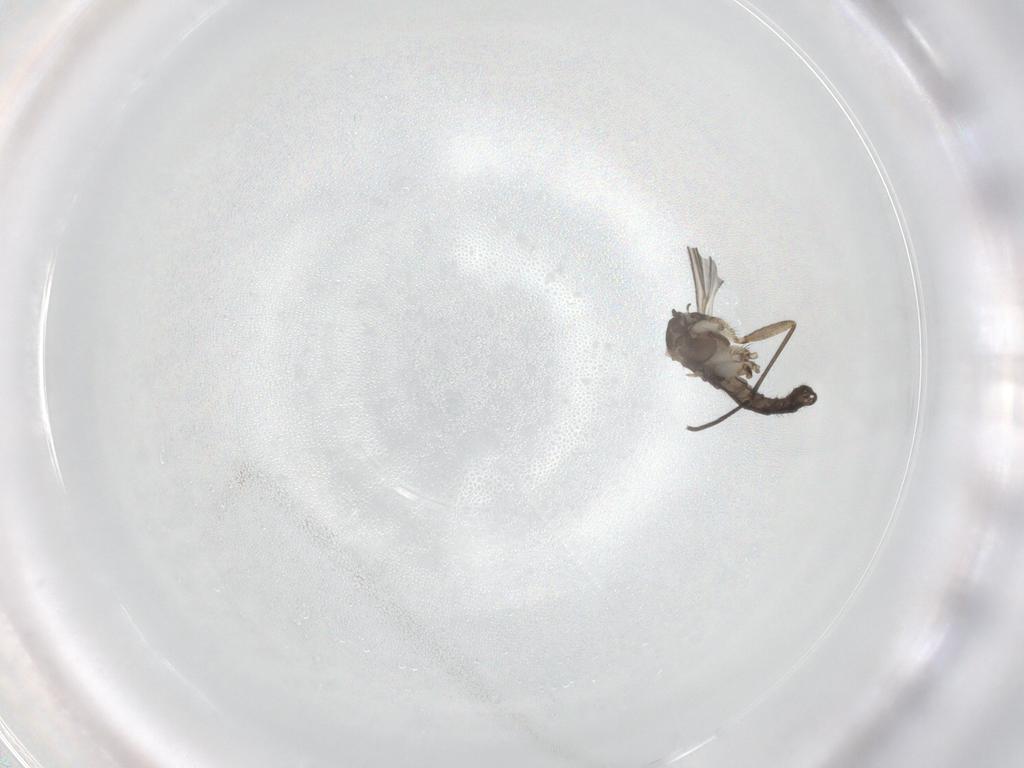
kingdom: Animalia
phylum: Arthropoda
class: Insecta
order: Diptera
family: Sciaridae
